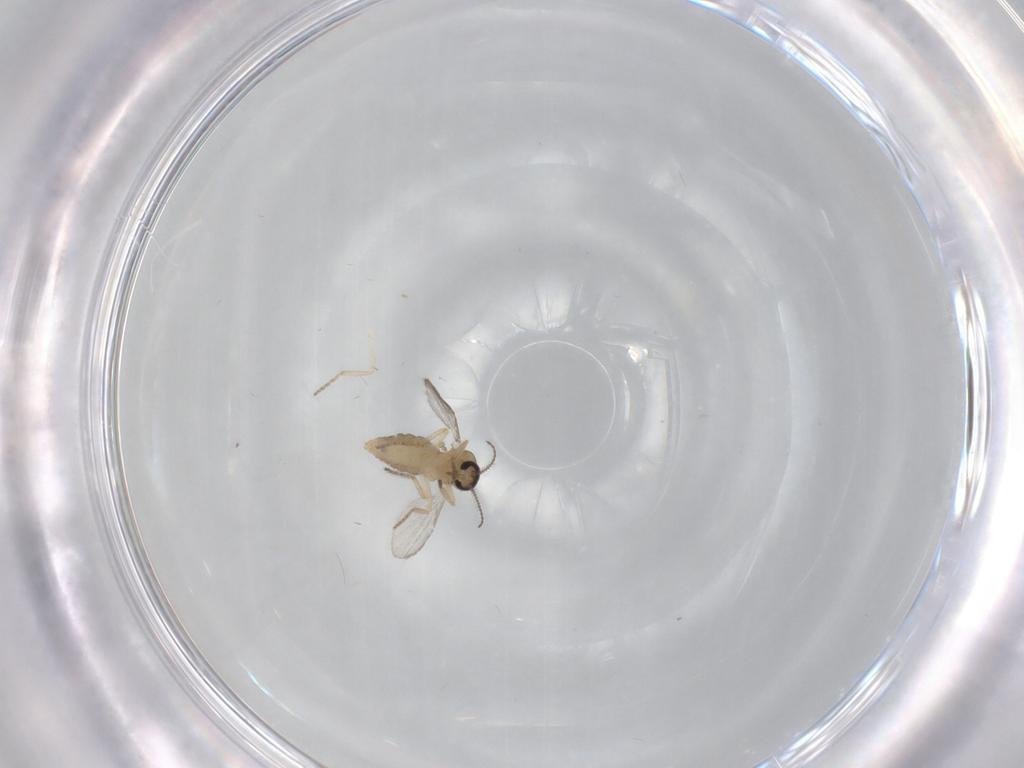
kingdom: Animalia
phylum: Arthropoda
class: Insecta
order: Diptera
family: Ceratopogonidae
